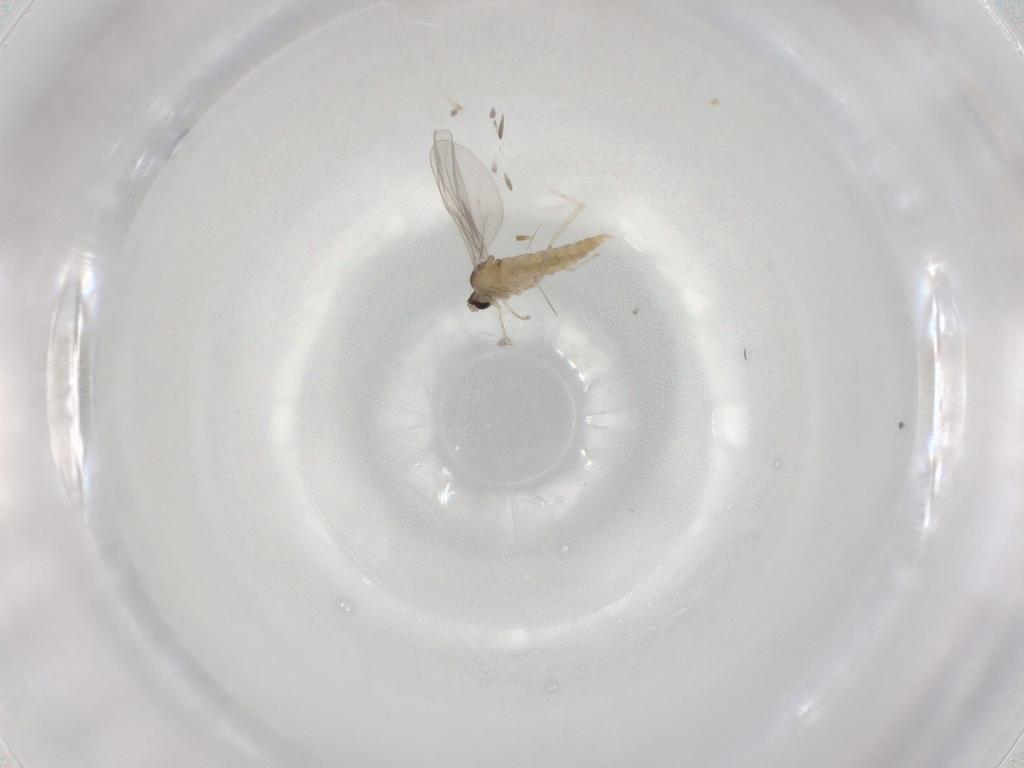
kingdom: Animalia
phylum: Arthropoda
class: Insecta
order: Diptera
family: Cecidomyiidae
